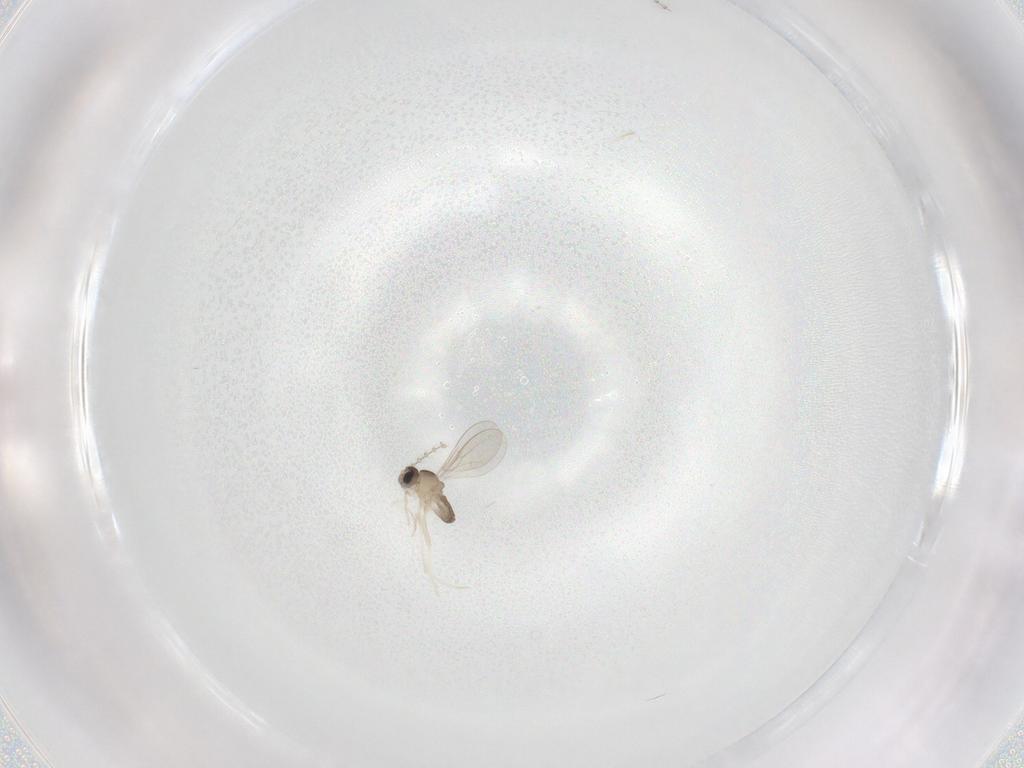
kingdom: Animalia
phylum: Arthropoda
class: Insecta
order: Diptera
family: Cecidomyiidae
